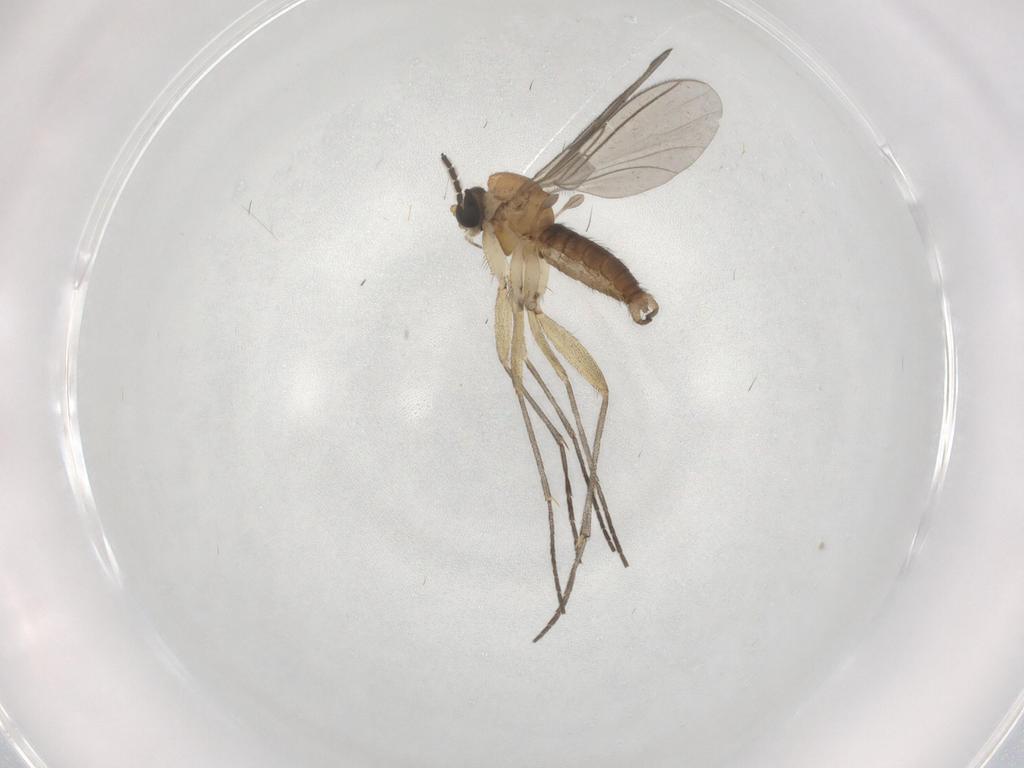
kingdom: Animalia
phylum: Arthropoda
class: Insecta
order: Diptera
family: Sciaridae
